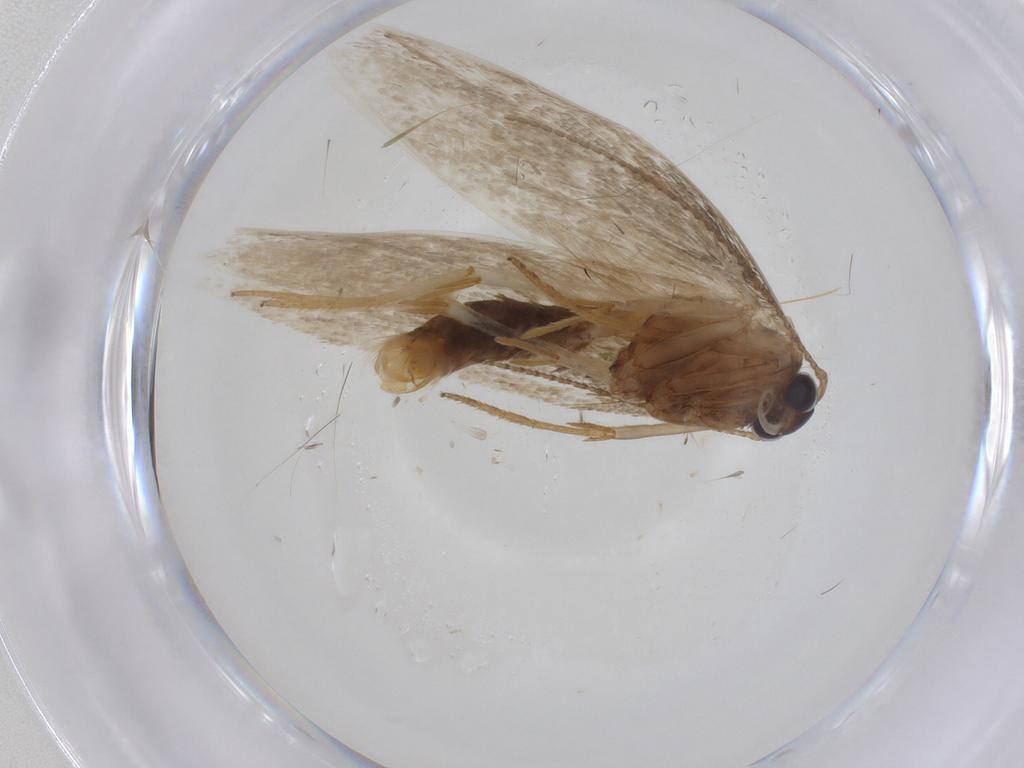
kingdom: Animalia
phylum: Arthropoda
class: Insecta
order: Lepidoptera
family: Erebidae
